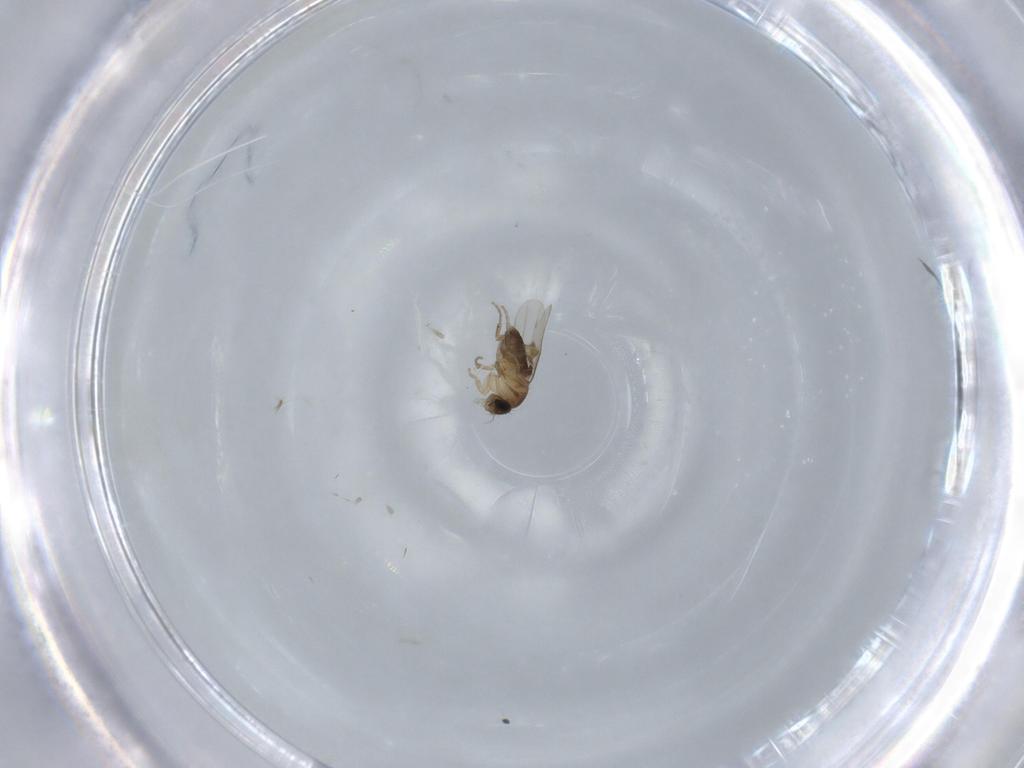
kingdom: Animalia
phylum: Arthropoda
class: Insecta
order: Diptera
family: Phoridae
